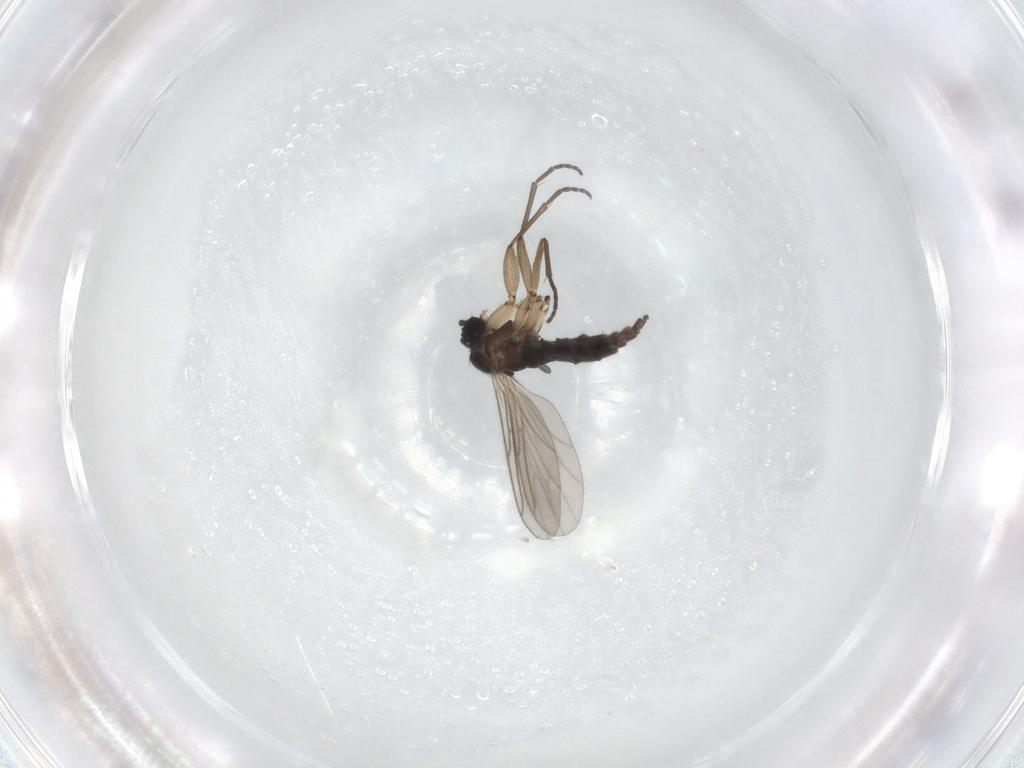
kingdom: Animalia
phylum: Arthropoda
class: Insecta
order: Diptera
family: Sciaridae
